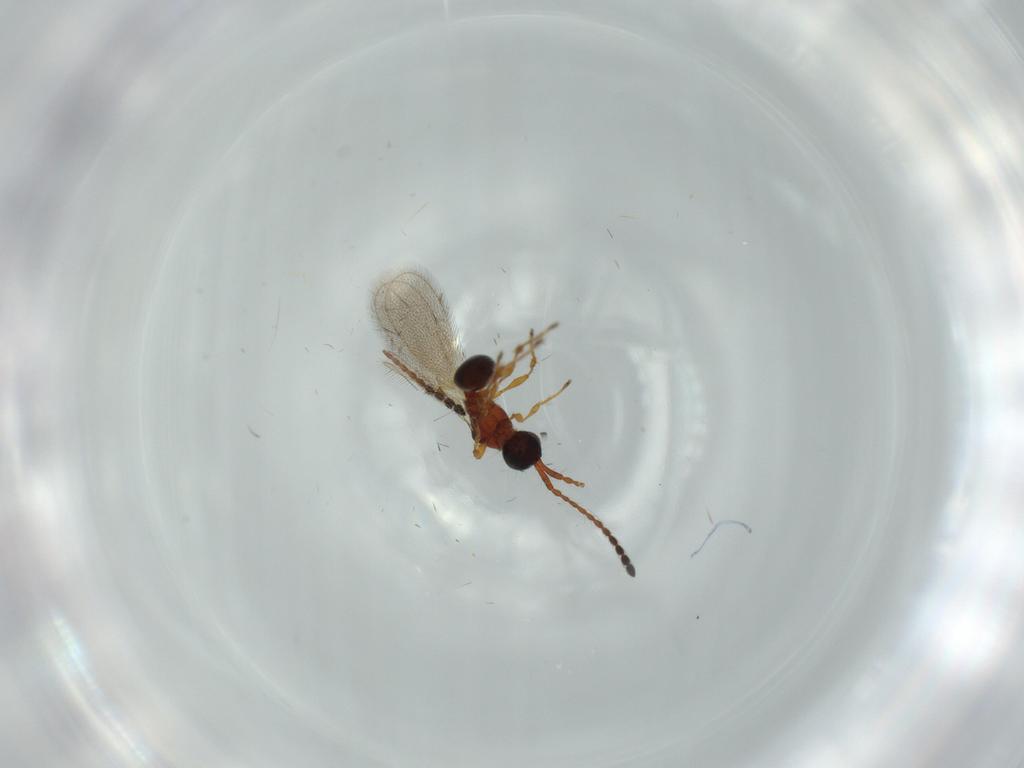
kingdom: Animalia
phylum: Arthropoda
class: Insecta
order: Hymenoptera
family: Diapriidae
